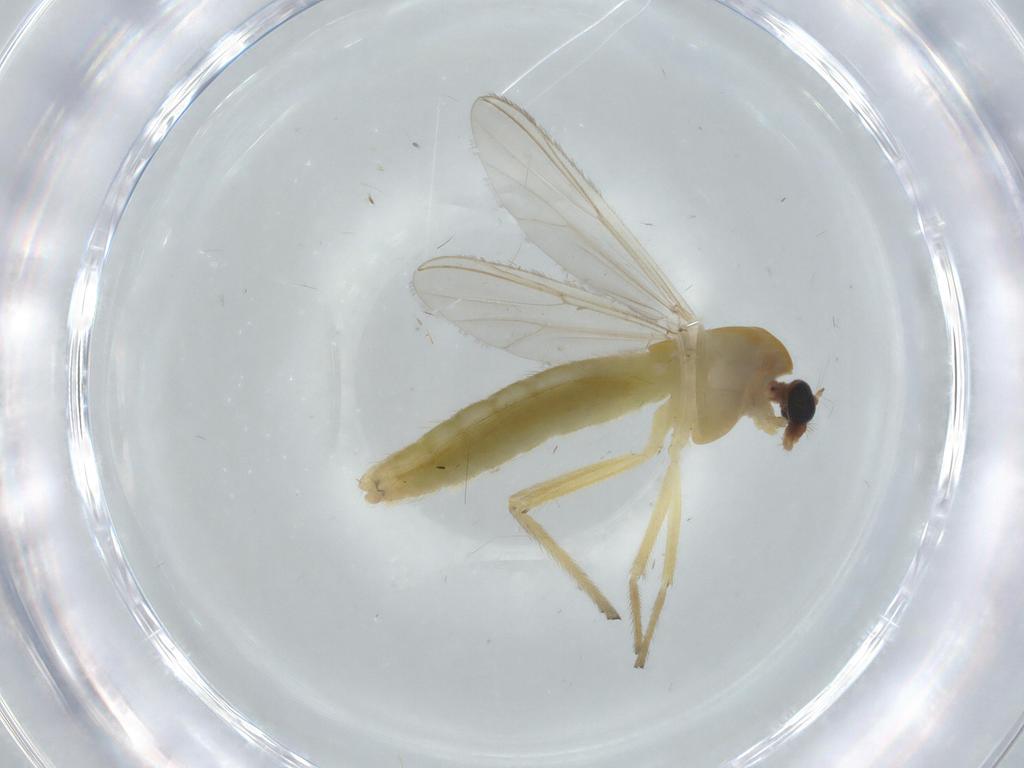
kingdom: Animalia
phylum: Arthropoda
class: Insecta
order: Diptera
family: Chironomidae
